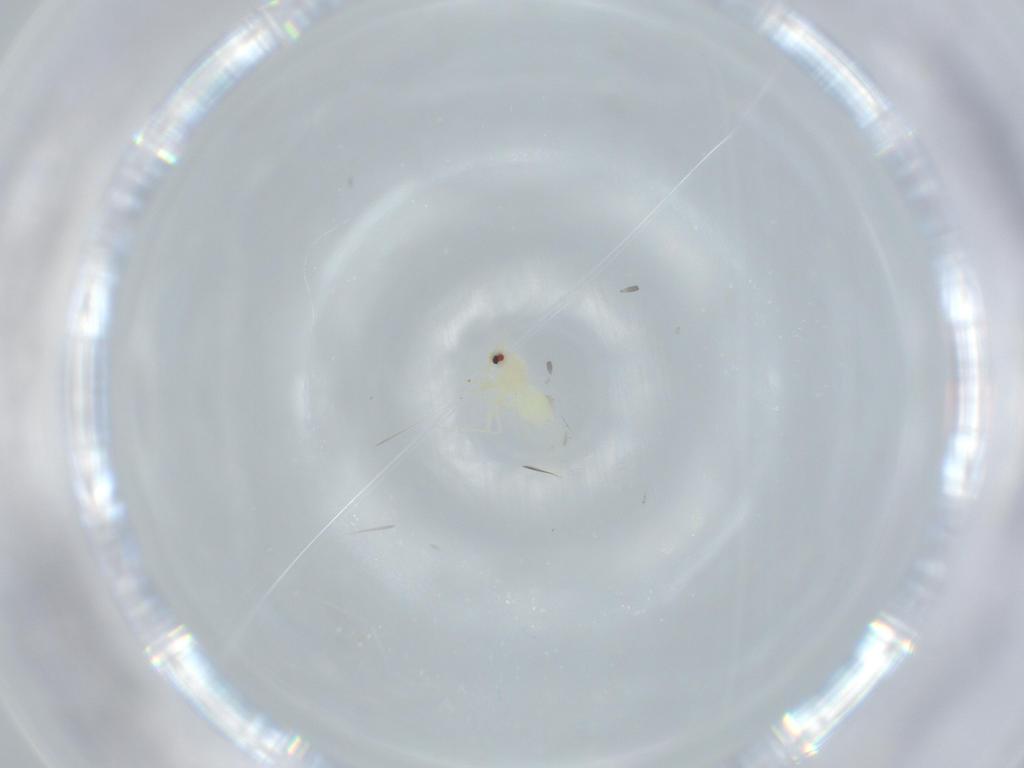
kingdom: Animalia
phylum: Arthropoda
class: Insecta
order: Hemiptera
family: Aleyrodidae
